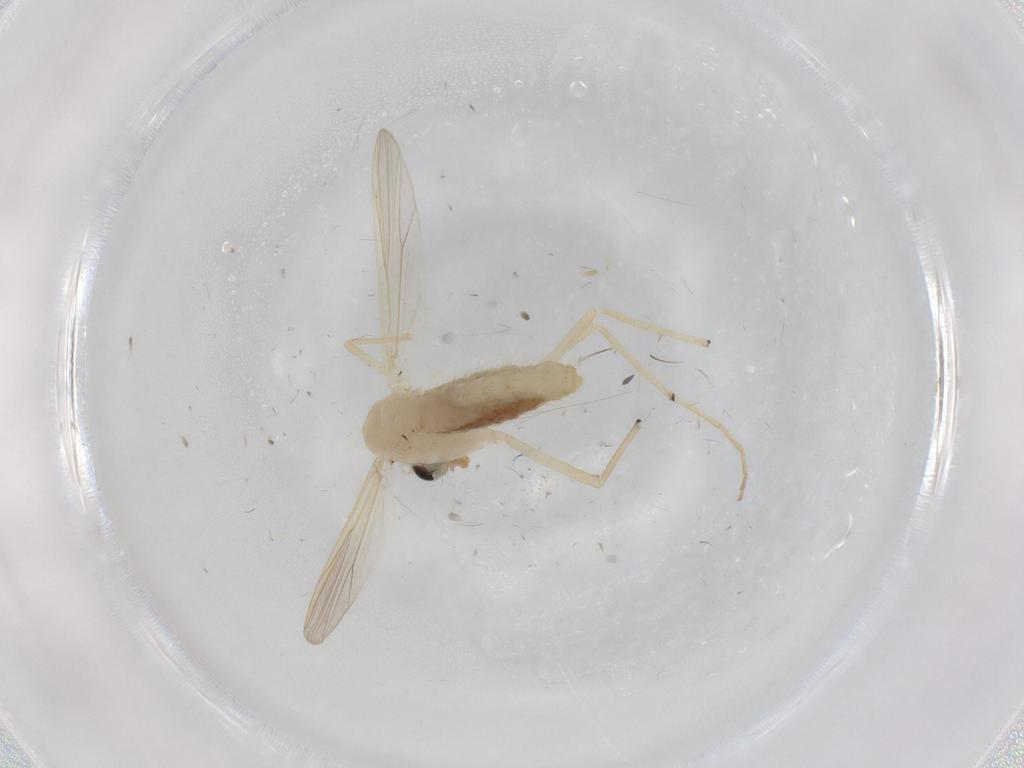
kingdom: Animalia
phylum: Arthropoda
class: Insecta
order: Diptera
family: Chironomidae
